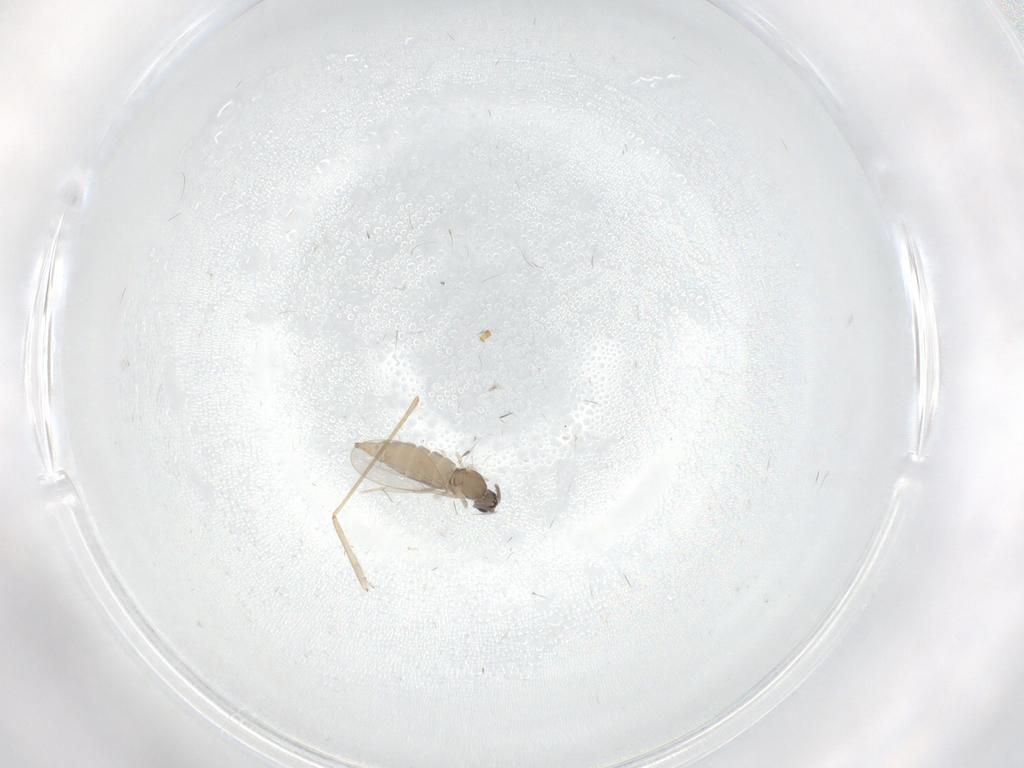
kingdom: Animalia
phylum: Arthropoda
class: Insecta
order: Diptera
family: Cecidomyiidae
